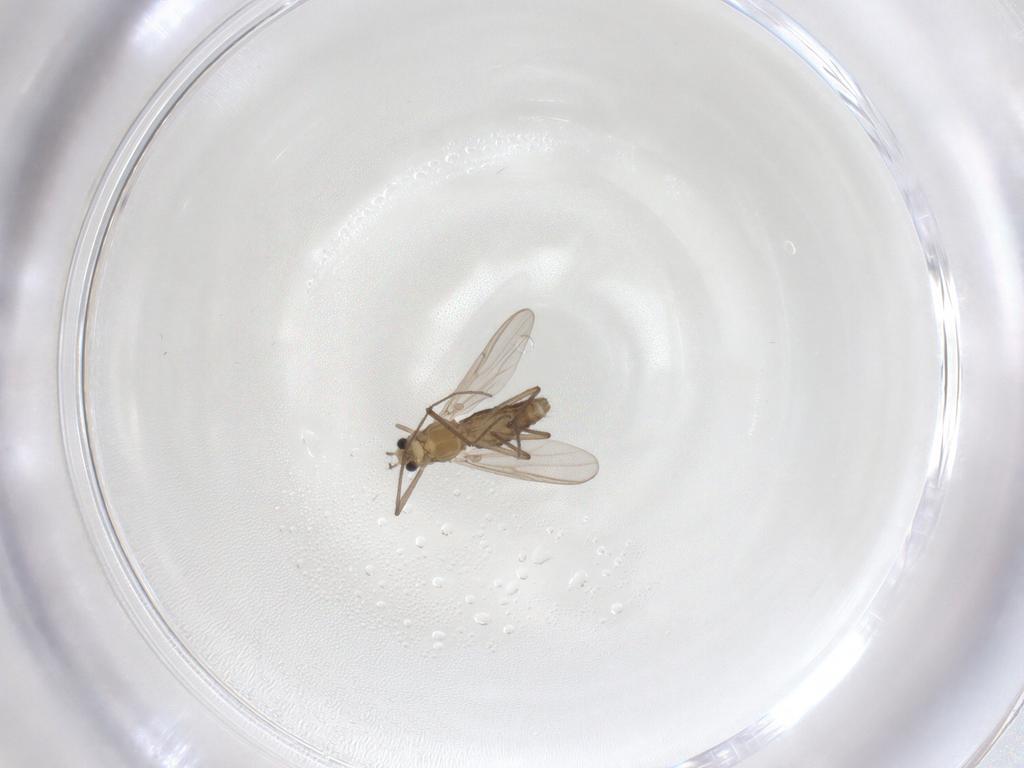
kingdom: Animalia
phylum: Arthropoda
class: Insecta
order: Diptera
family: Chironomidae
